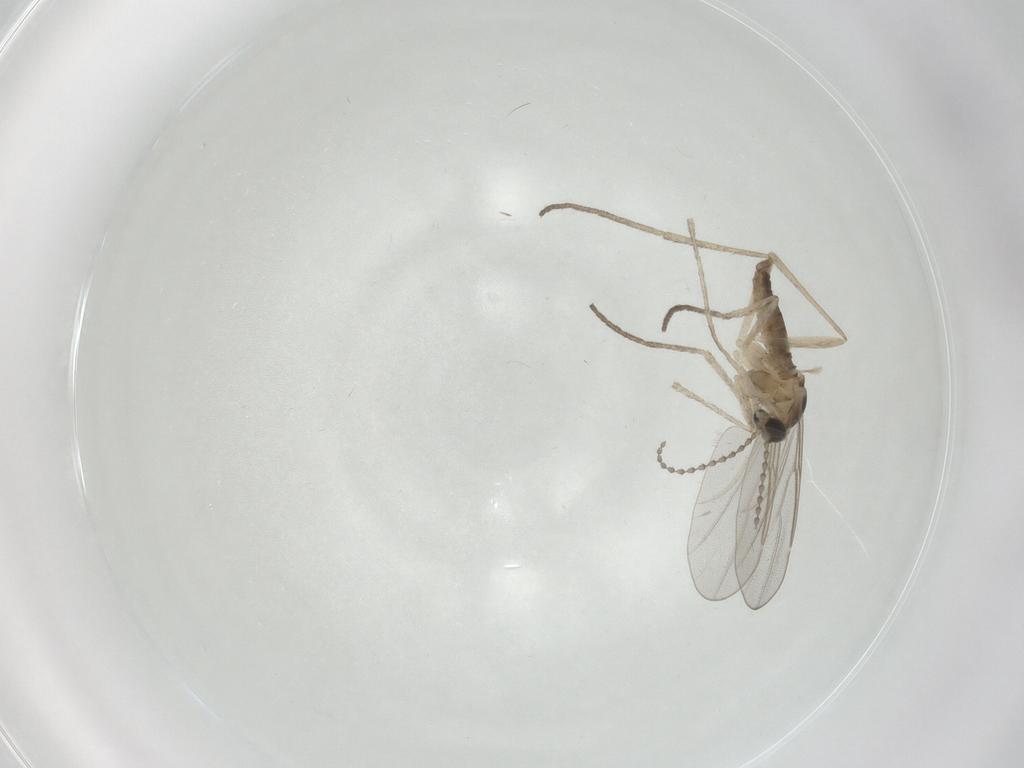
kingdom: Animalia
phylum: Arthropoda
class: Insecta
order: Diptera
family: Cecidomyiidae
